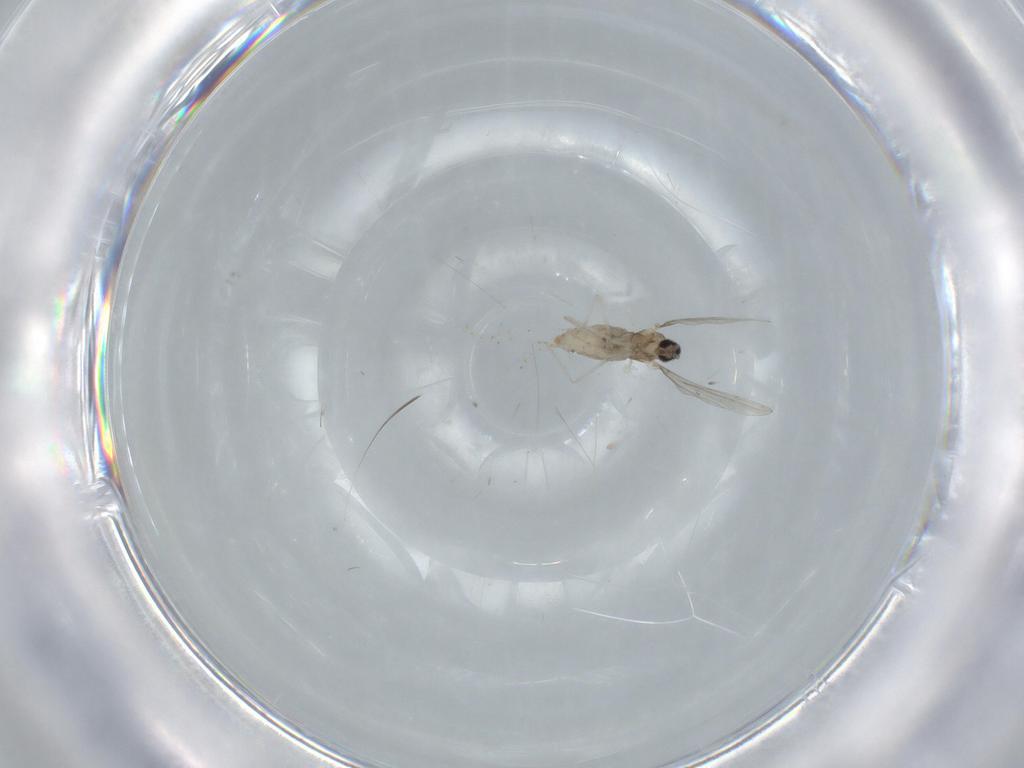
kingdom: Animalia
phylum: Arthropoda
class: Insecta
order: Diptera
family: Cecidomyiidae
